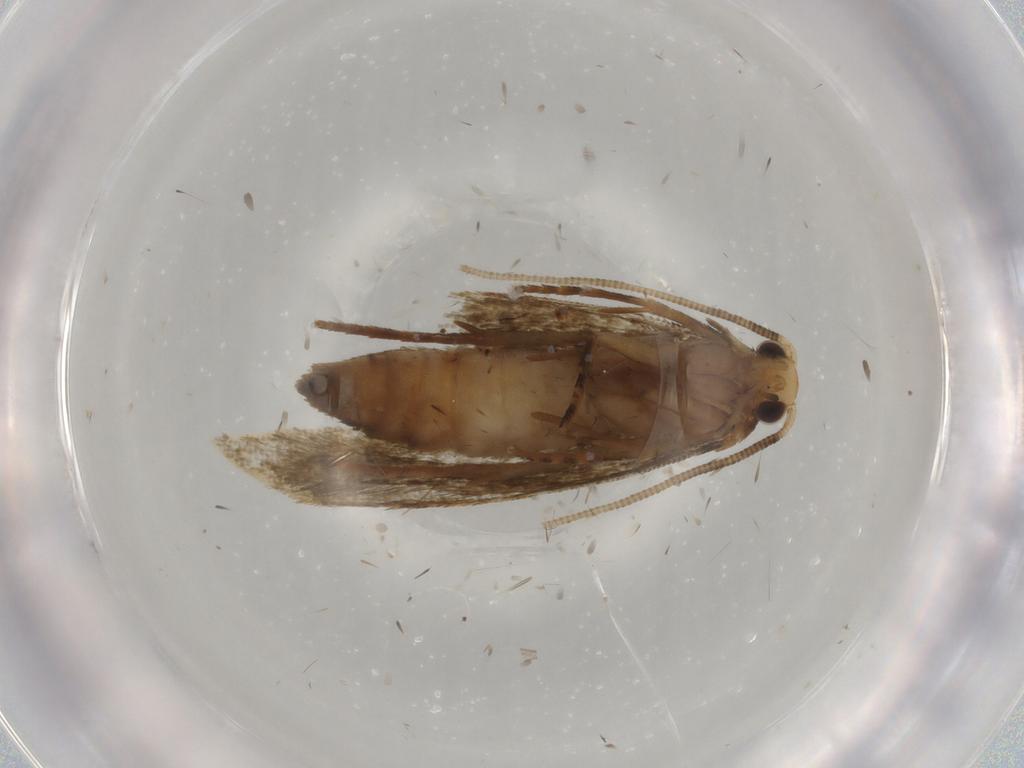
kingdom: Animalia
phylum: Arthropoda
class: Insecta
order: Lepidoptera
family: Tineidae
